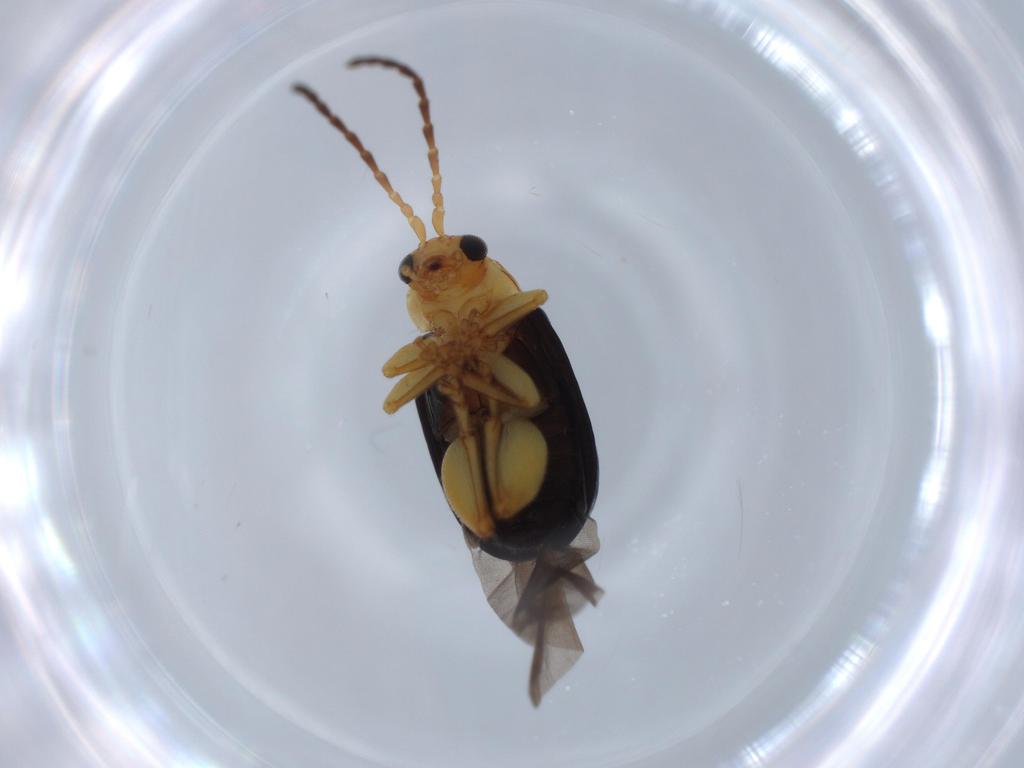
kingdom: Animalia
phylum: Arthropoda
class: Insecta
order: Coleoptera
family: Chrysomelidae
